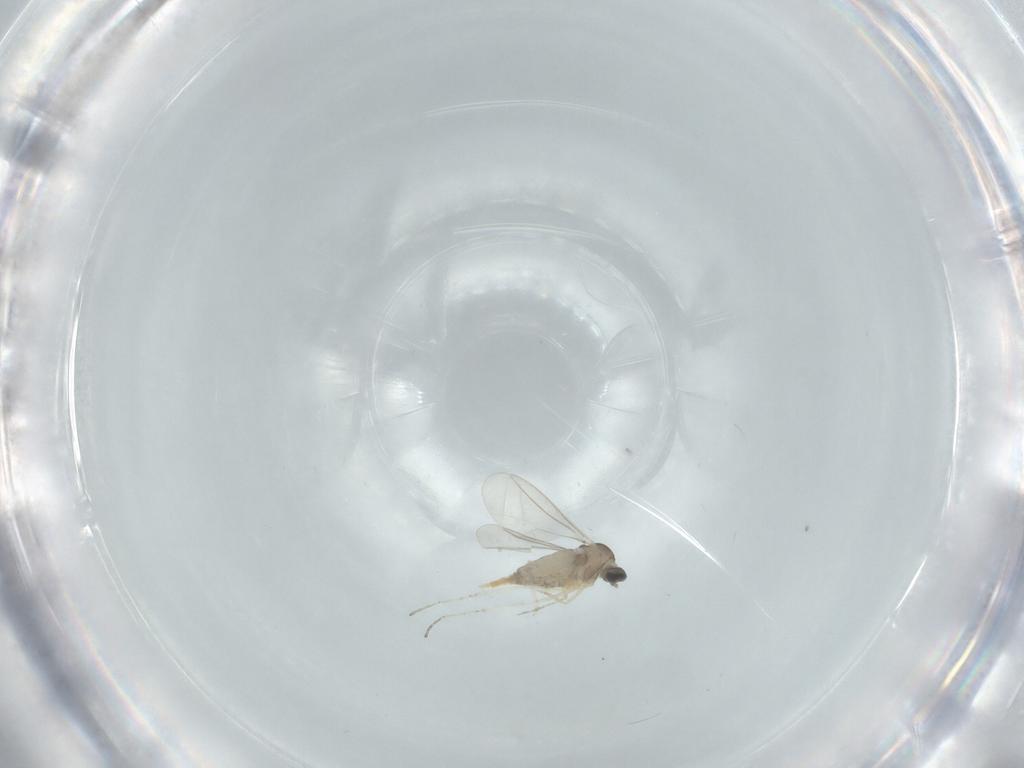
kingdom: Animalia
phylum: Arthropoda
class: Insecta
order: Diptera
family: Cecidomyiidae
